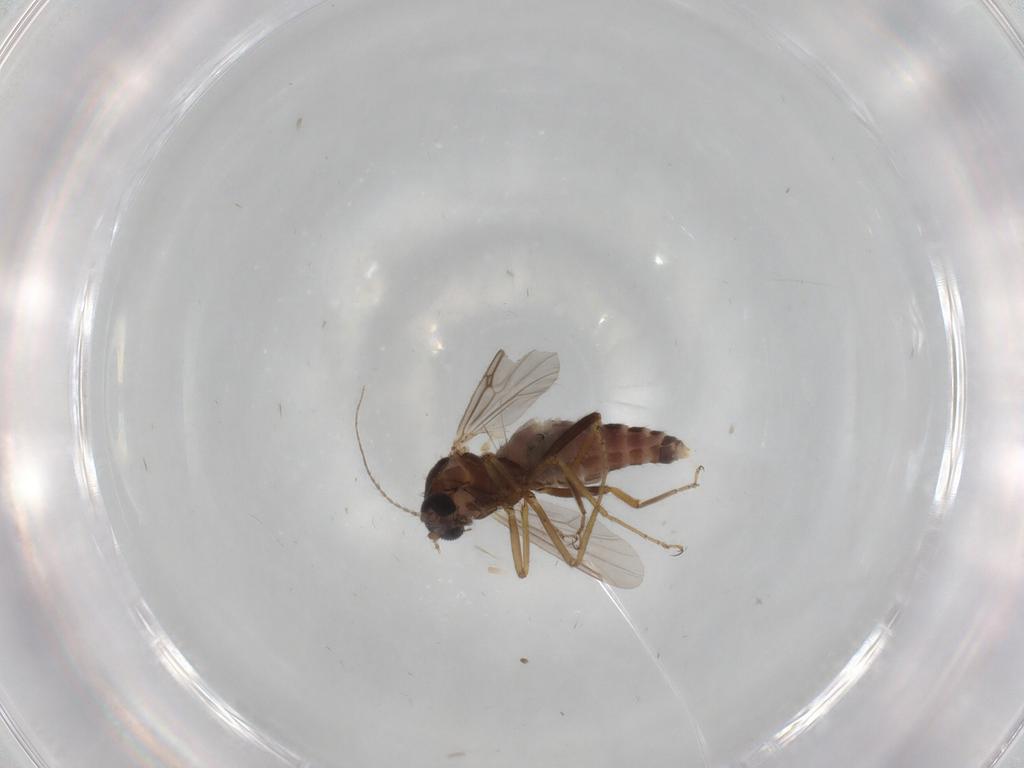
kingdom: Animalia
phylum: Arthropoda
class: Insecta
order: Diptera
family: Ceratopogonidae
